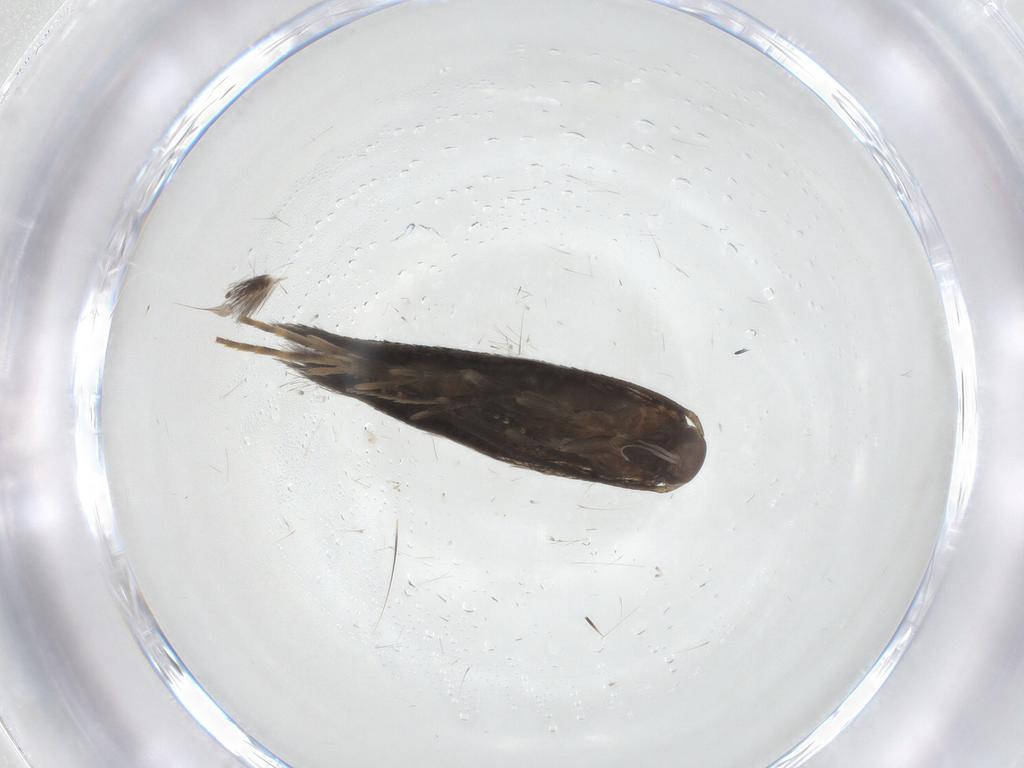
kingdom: Animalia
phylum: Arthropoda
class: Insecta
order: Lepidoptera
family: Elachistidae
